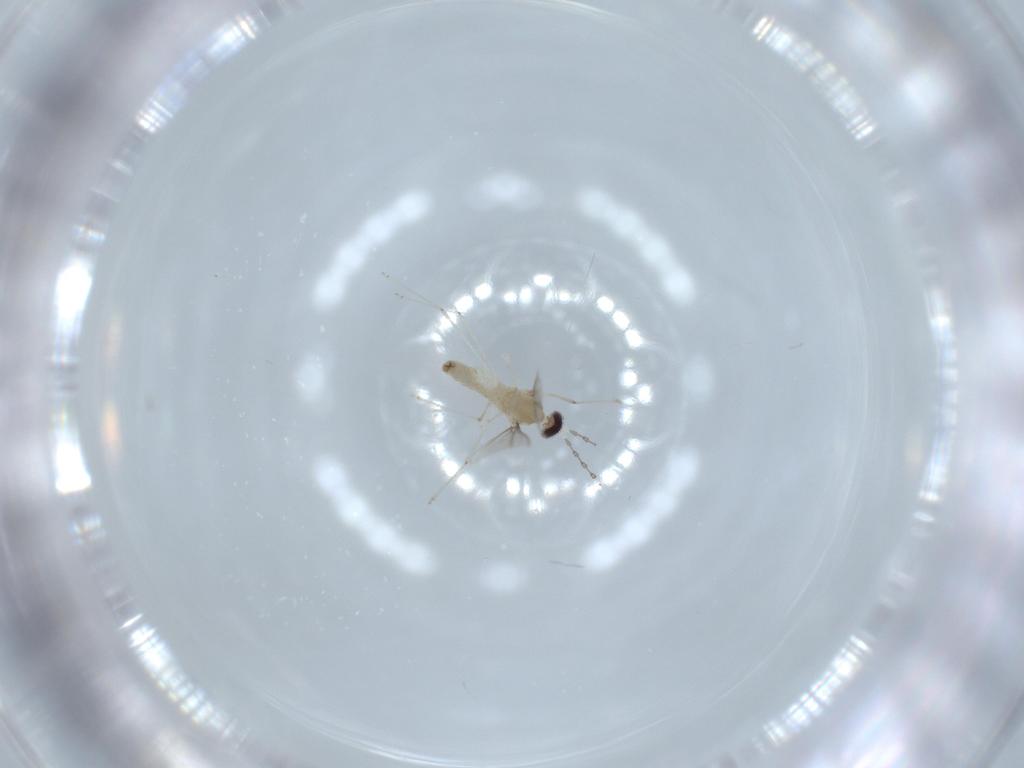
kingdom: Animalia
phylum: Arthropoda
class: Insecta
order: Diptera
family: Cecidomyiidae
